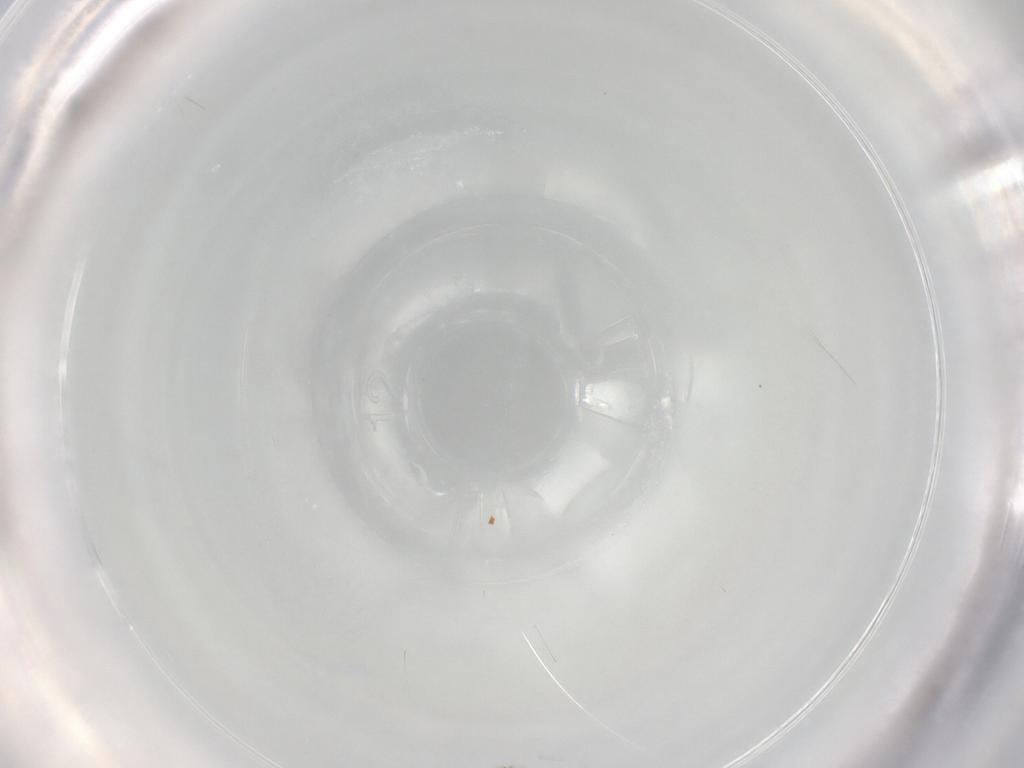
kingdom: Animalia
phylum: Arthropoda
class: Insecta
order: Diptera
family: Cecidomyiidae
